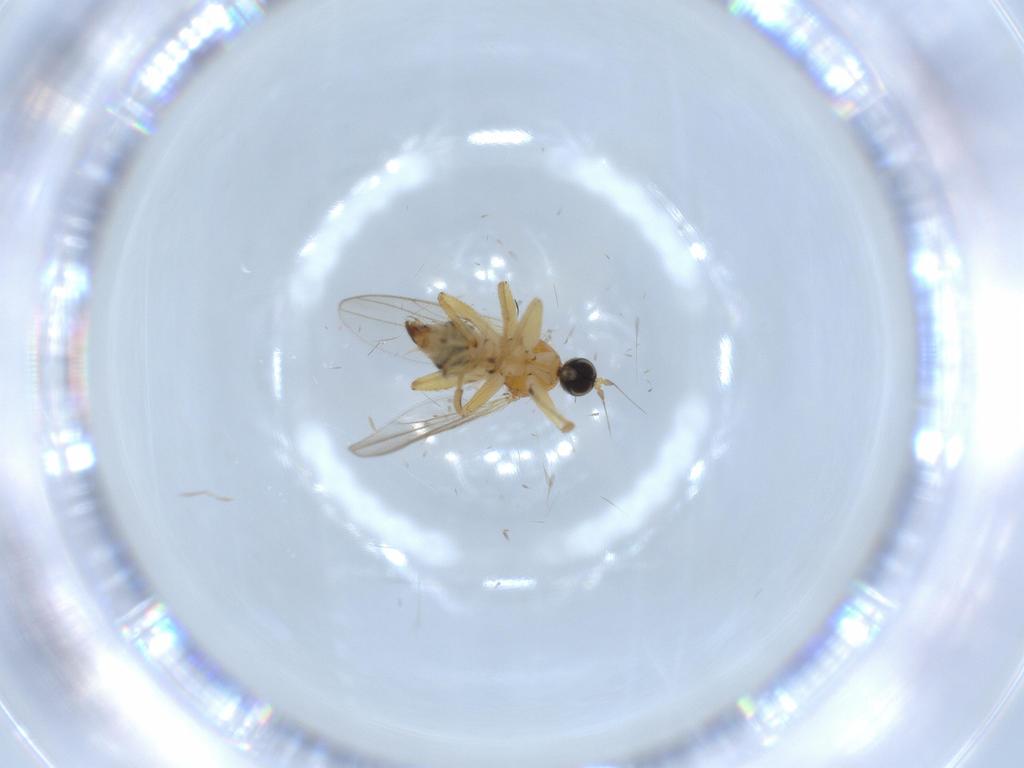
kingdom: Animalia
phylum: Arthropoda
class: Insecta
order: Diptera
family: Hybotidae
